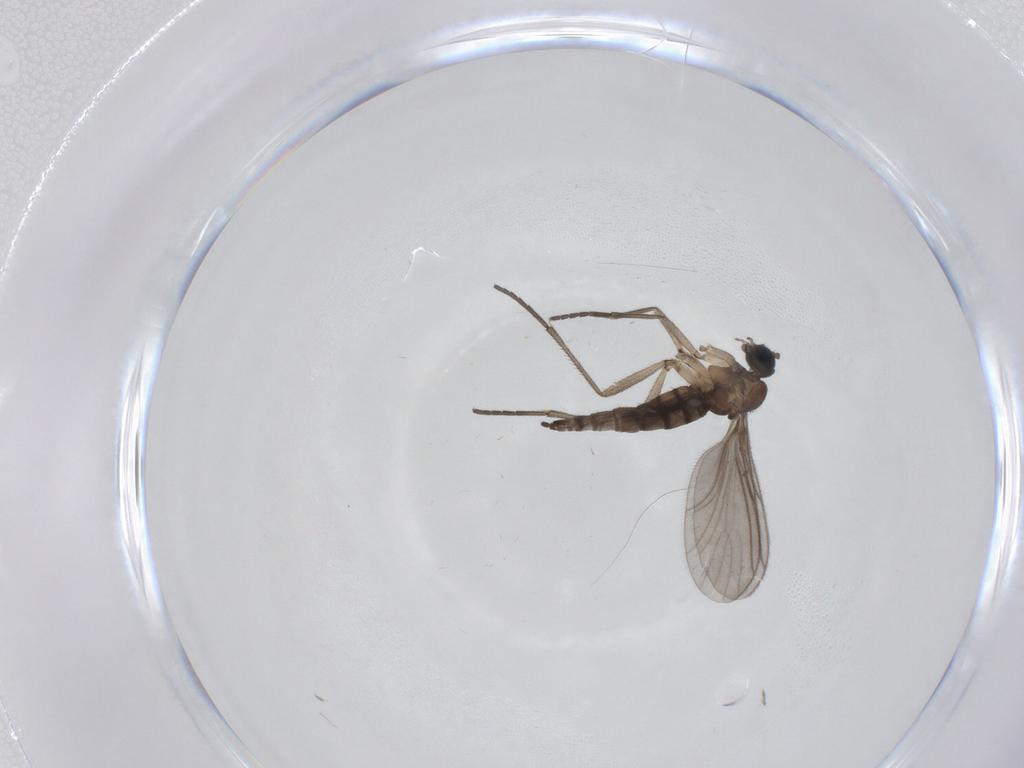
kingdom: Animalia
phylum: Arthropoda
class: Insecta
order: Diptera
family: Sciaridae
